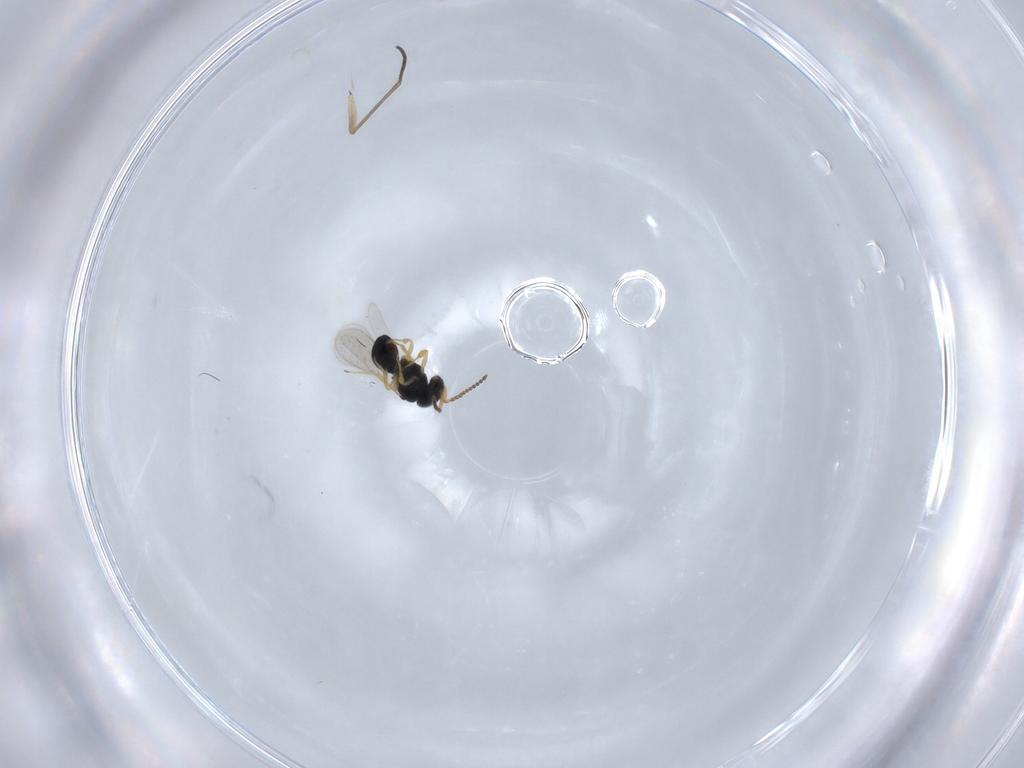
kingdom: Animalia
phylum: Arthropoda
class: Insecta
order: Hymenoptera
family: Scelionidae
